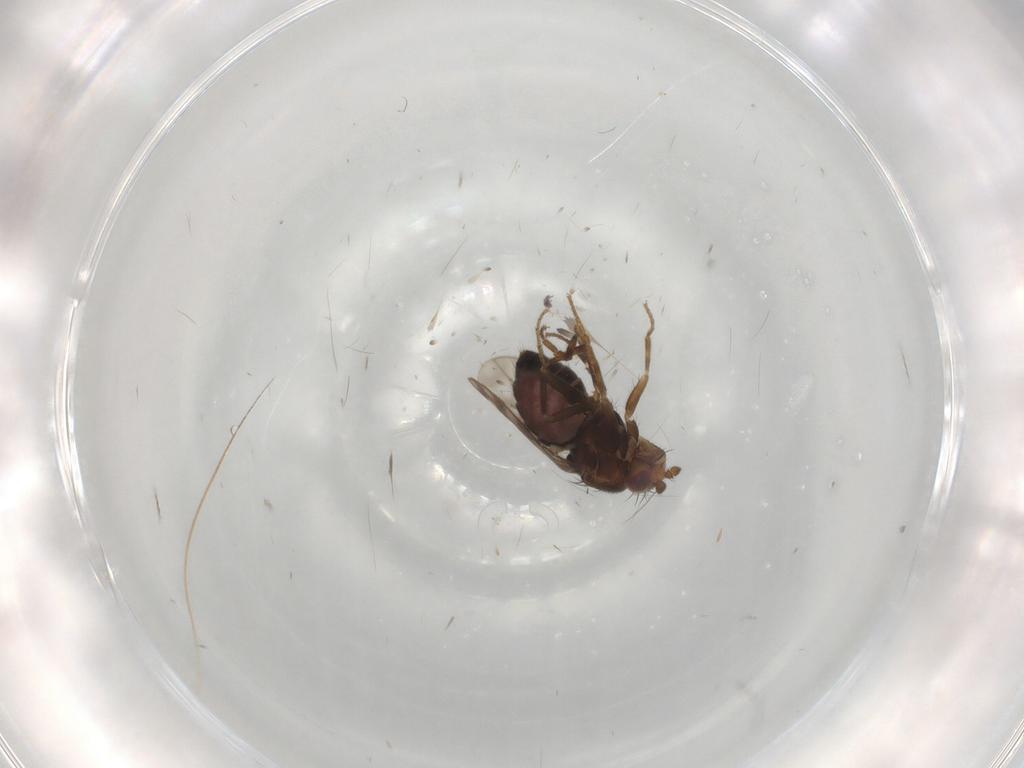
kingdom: Animalia
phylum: Arthropoda
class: Insecta
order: Diptera
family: Sphaeroceridae
